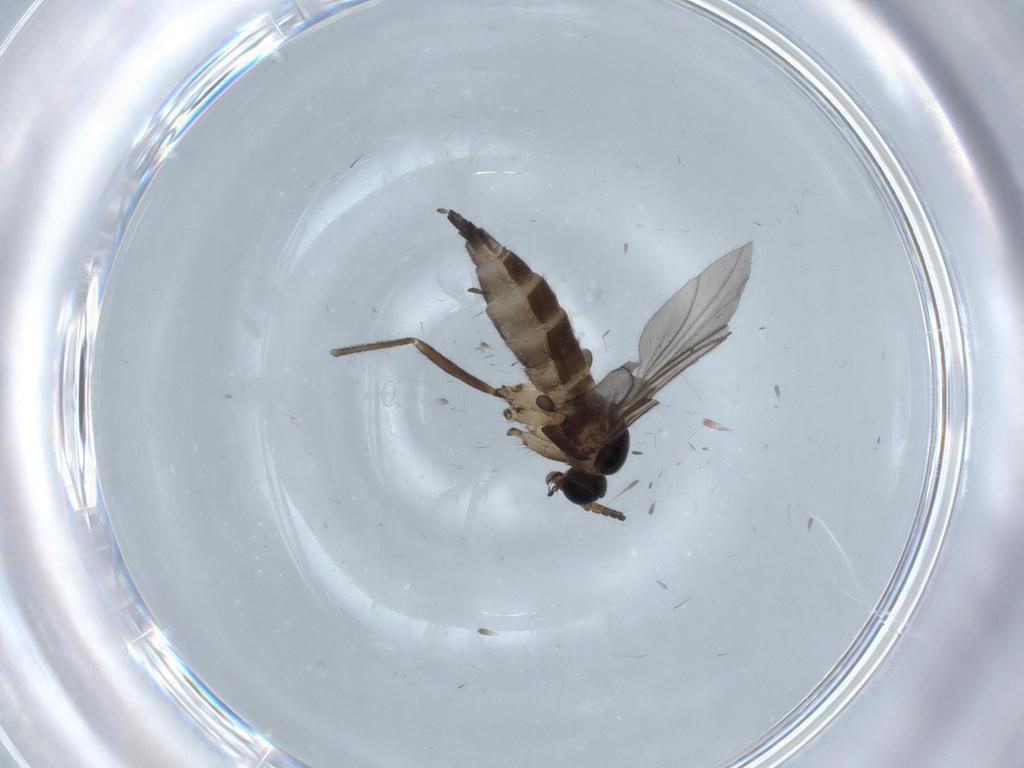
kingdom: Animalia
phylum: Arthropoda
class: Insecta
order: Diptera
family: Sciaridae
